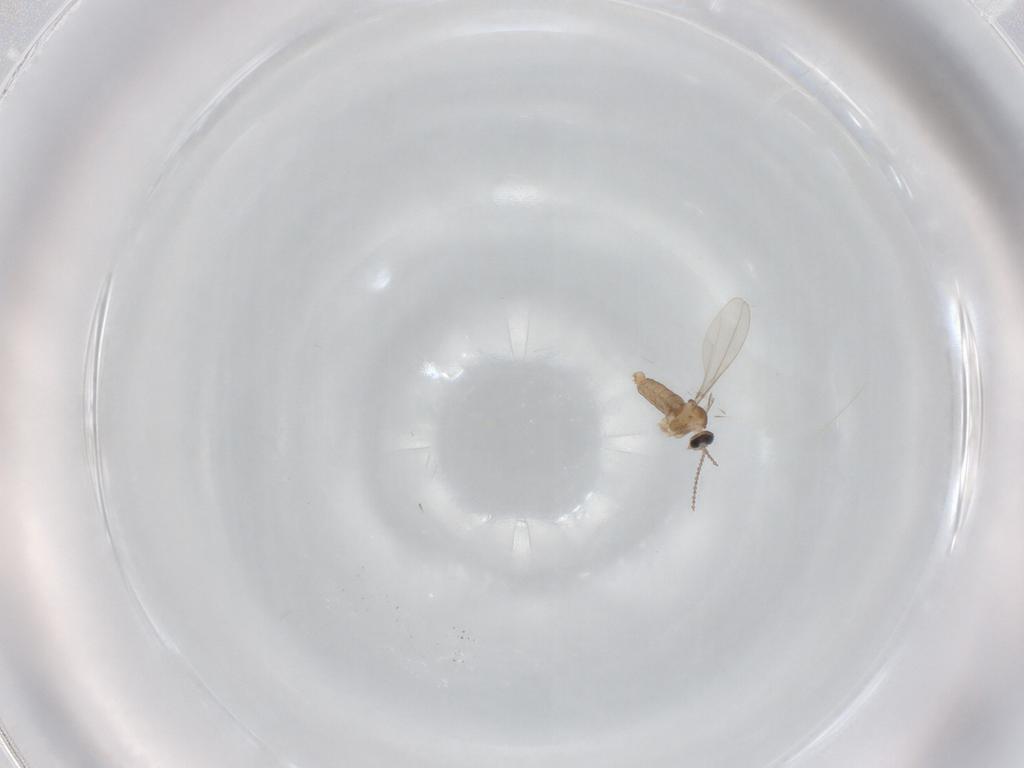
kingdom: Animalia
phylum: Arthropoda
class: Insecta
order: Diptera
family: Cecidomyiidae
